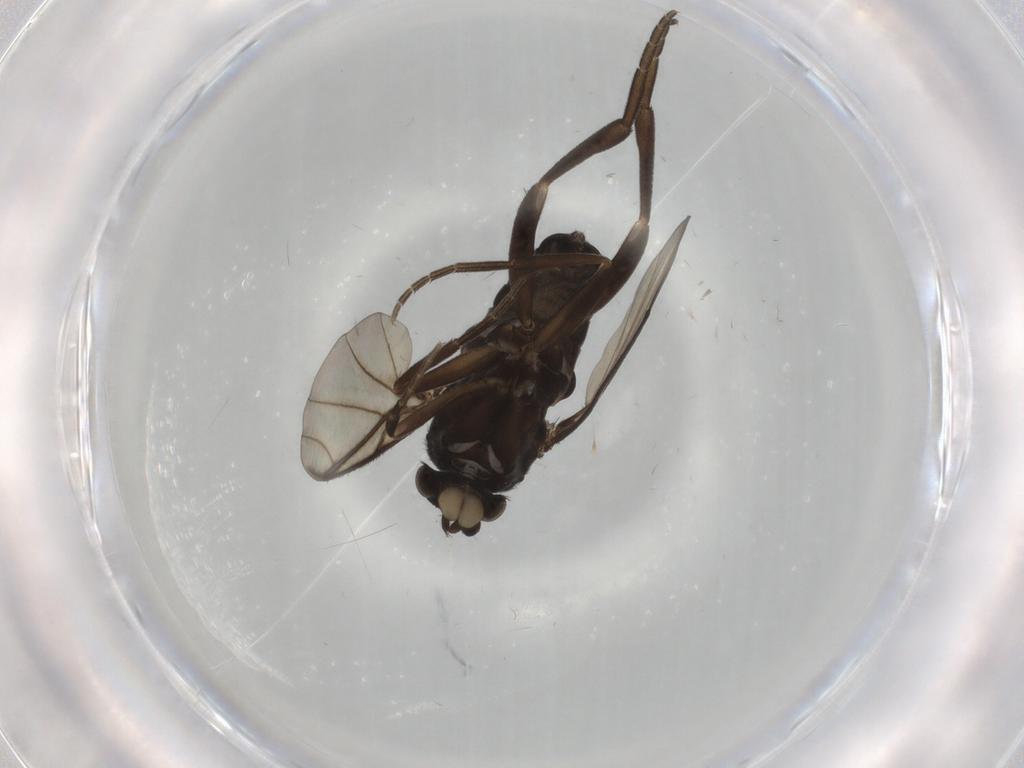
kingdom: Animalia
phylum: Arthropoda
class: Insecta
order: Diptera
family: Phoridae
